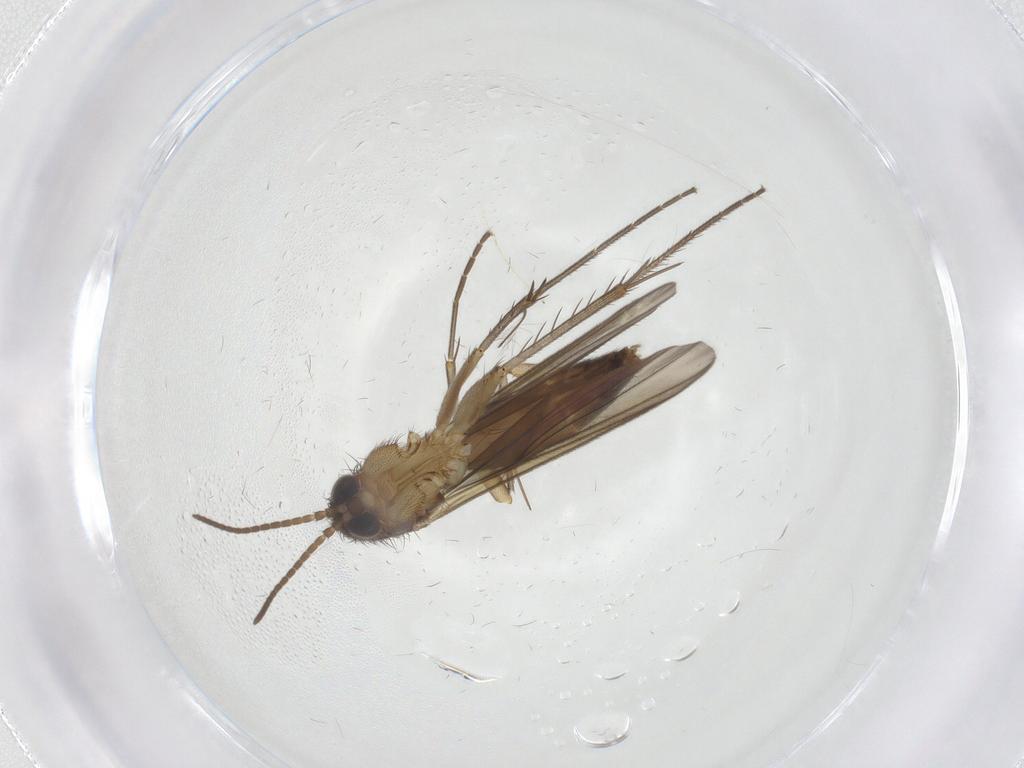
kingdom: Animalia
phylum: Arthropoda
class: Insecta
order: Diptera
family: Mycetophilidae
